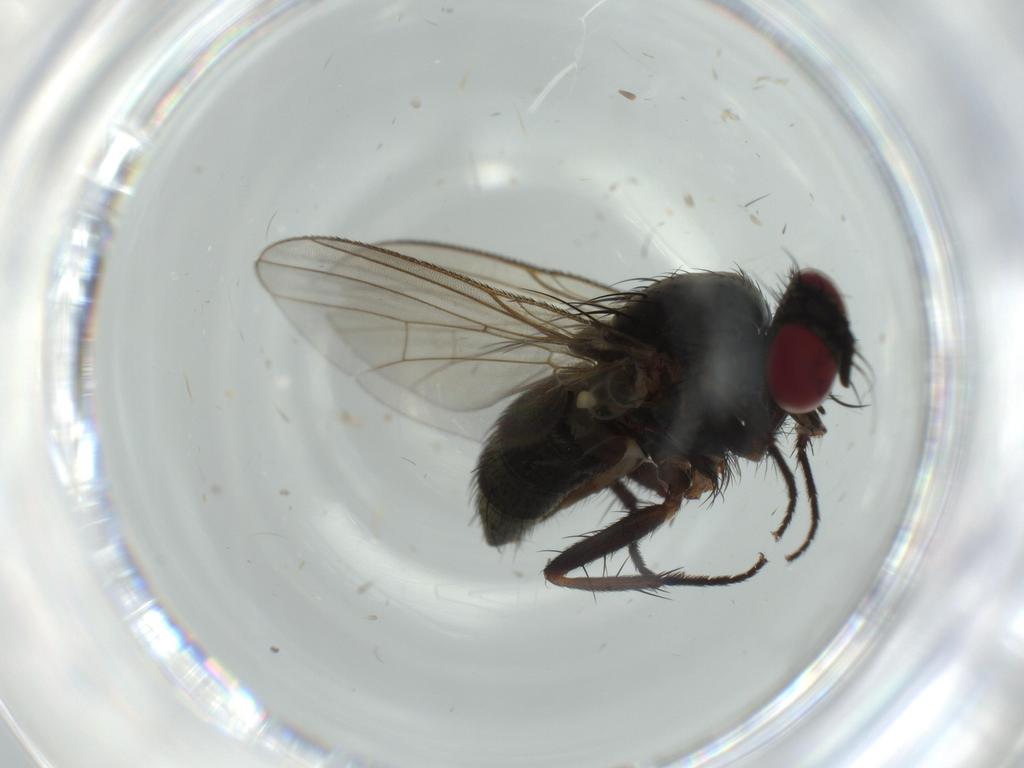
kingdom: Animalia
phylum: Arthropoda
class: Insecta
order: Diptera
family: Muscidae
